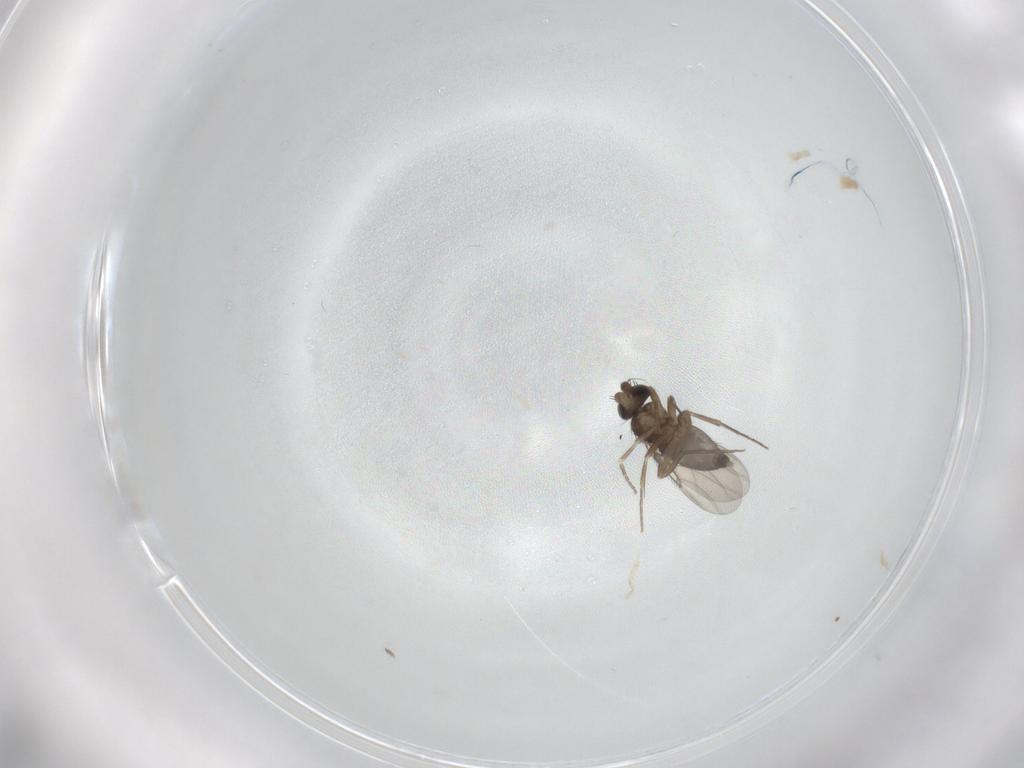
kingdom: Animalia
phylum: Arthropoda
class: Insecta
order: Diptera
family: Phoridae
